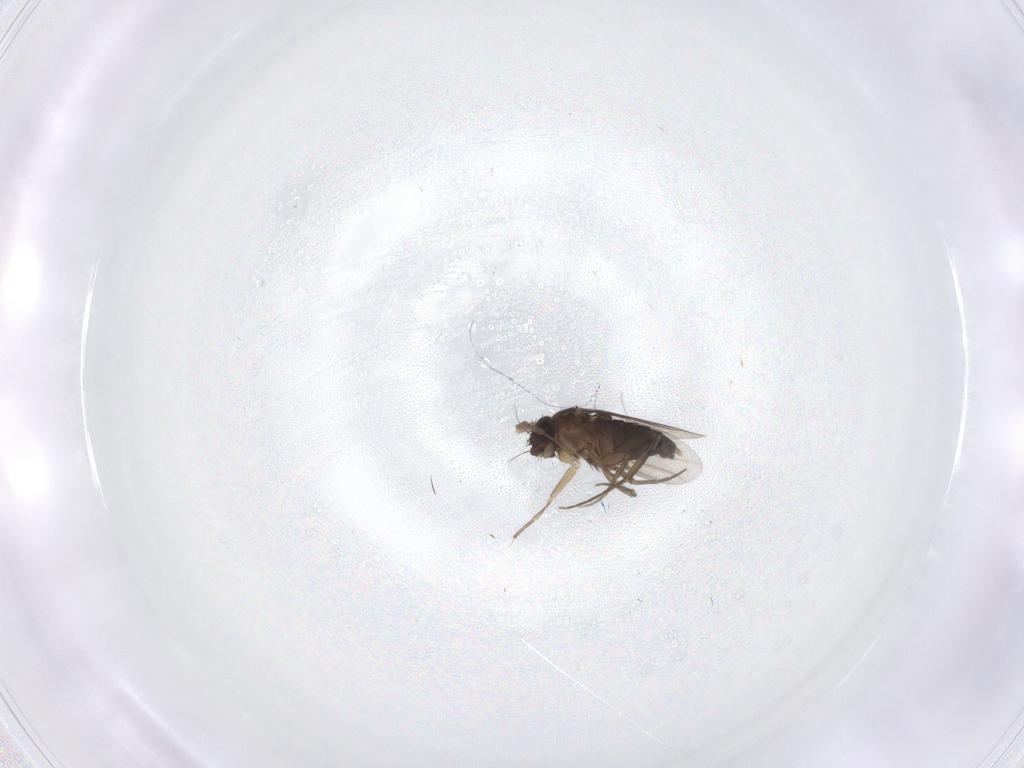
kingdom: Animalia
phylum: Arthropoda
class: Insecta
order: Diptera
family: Phoridae
